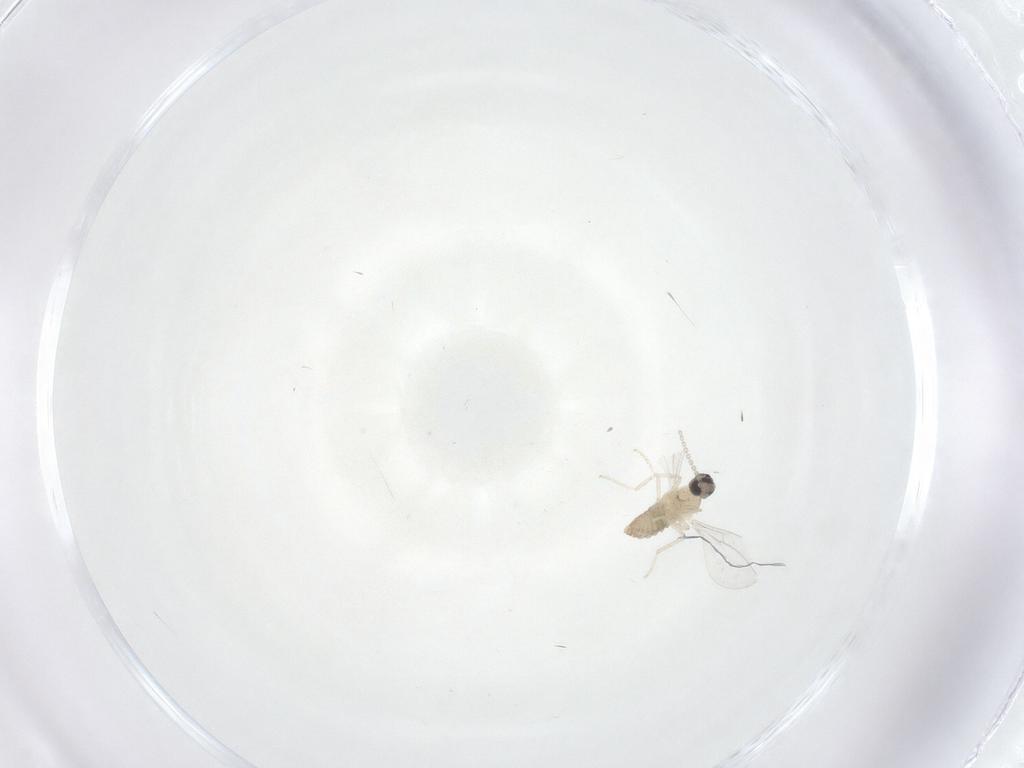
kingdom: Animalia
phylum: Arthropoda
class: Insecta
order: Diptera
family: Cecidomyiidae
